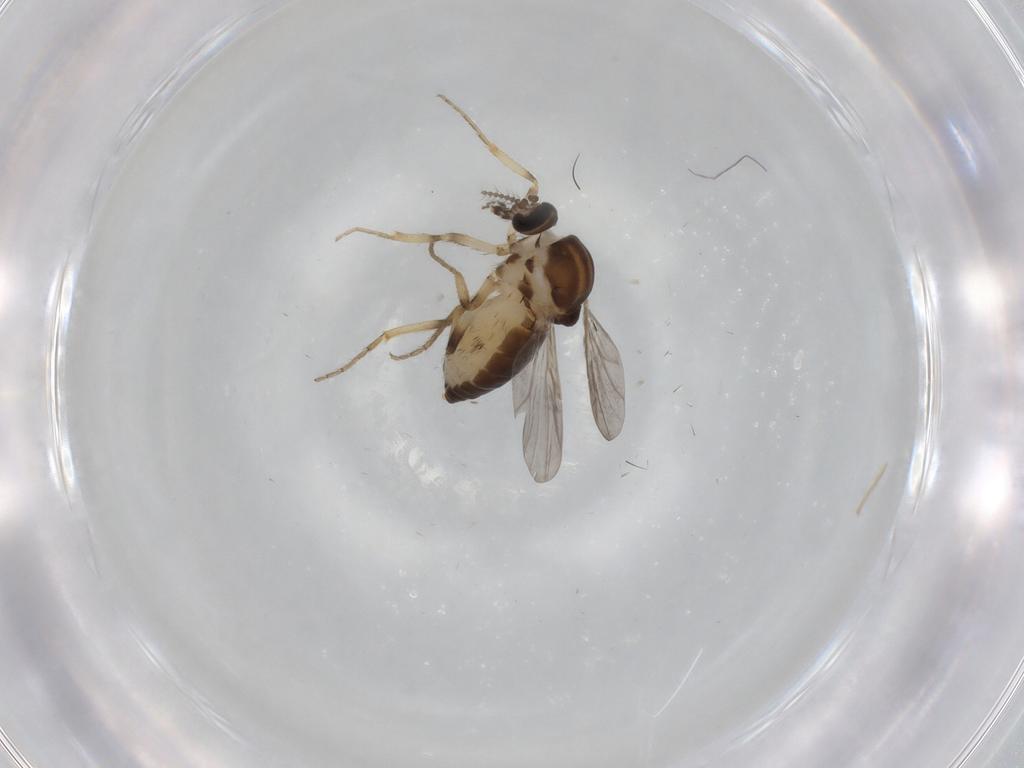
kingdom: Animalia
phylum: Arthropoda
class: Insecta
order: Diptera
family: Ceratopogonidae
